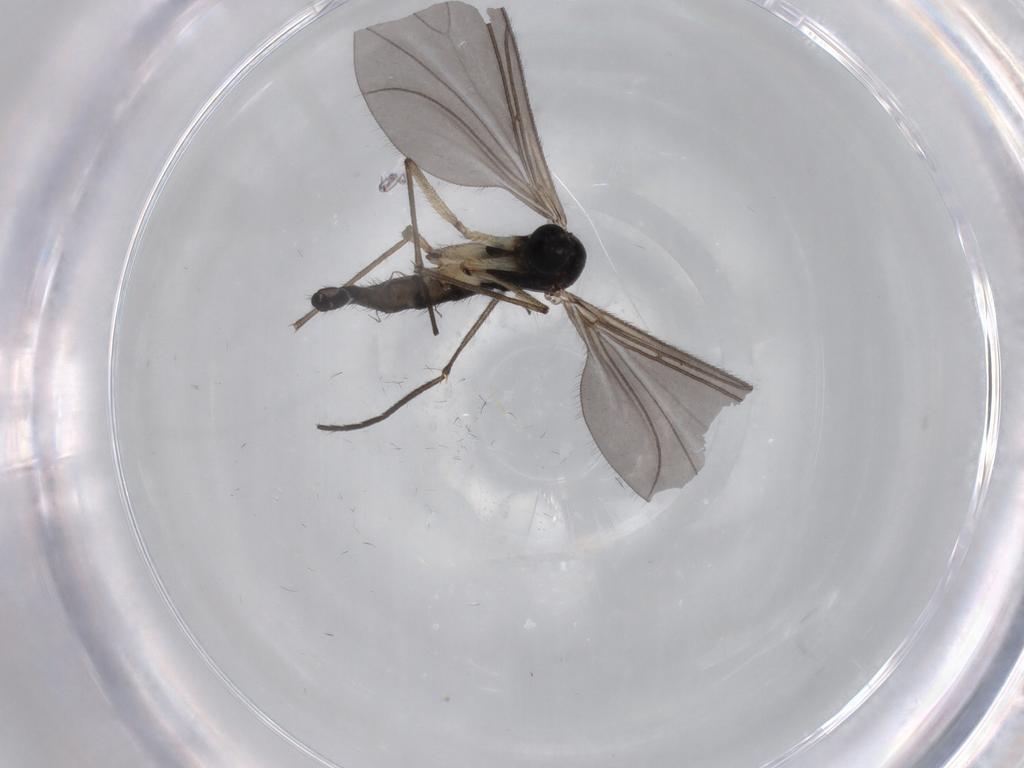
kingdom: Animalia
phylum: Arthropoda
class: Insecta
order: Diptera
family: Sciaridae
